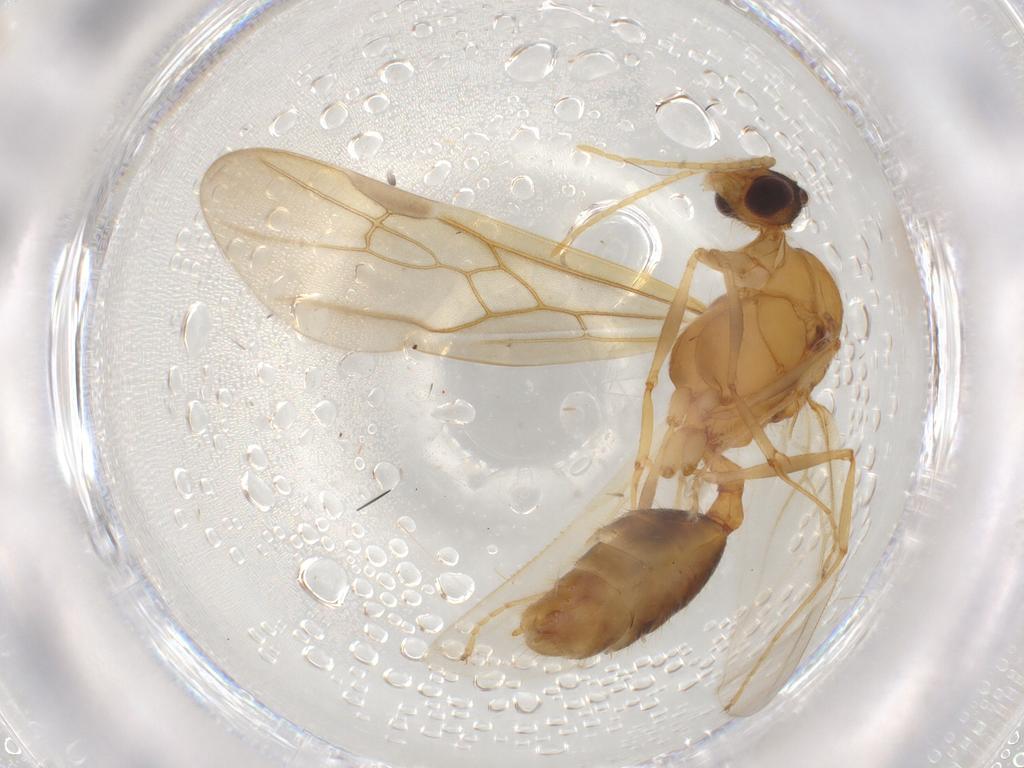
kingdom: Animalia
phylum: Arthropoda
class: Insecta
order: Hymenoptera
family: Formicidae
